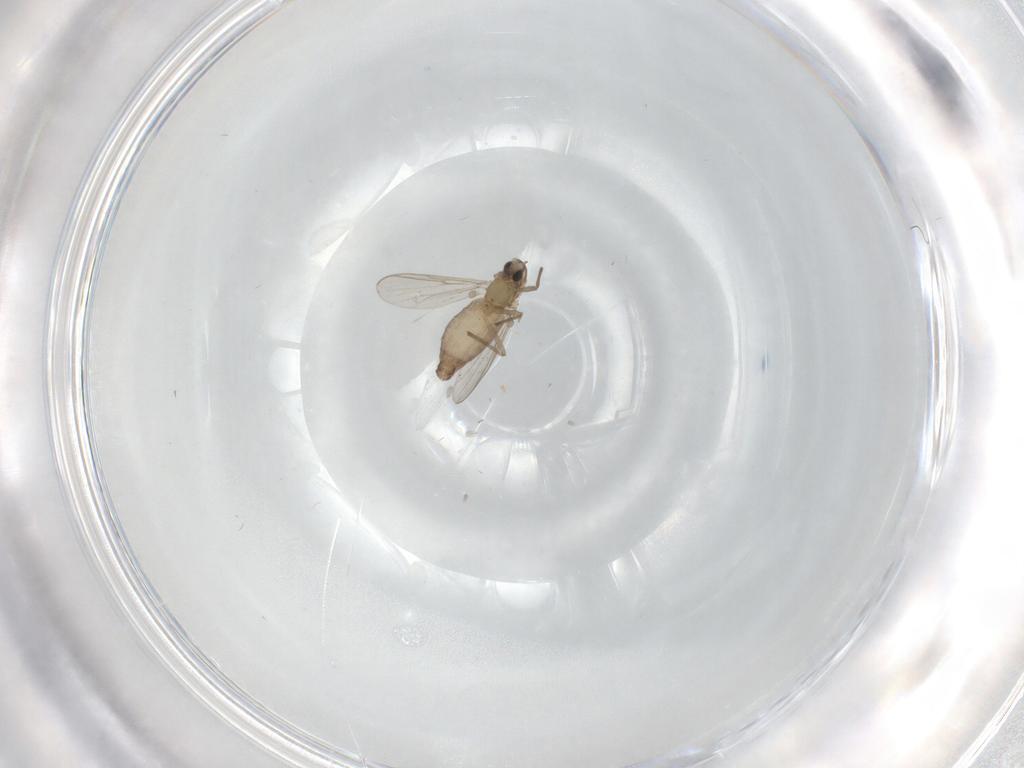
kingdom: Animalia
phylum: Arthropoda
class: Insecta
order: Diptera
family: Chironomidae
